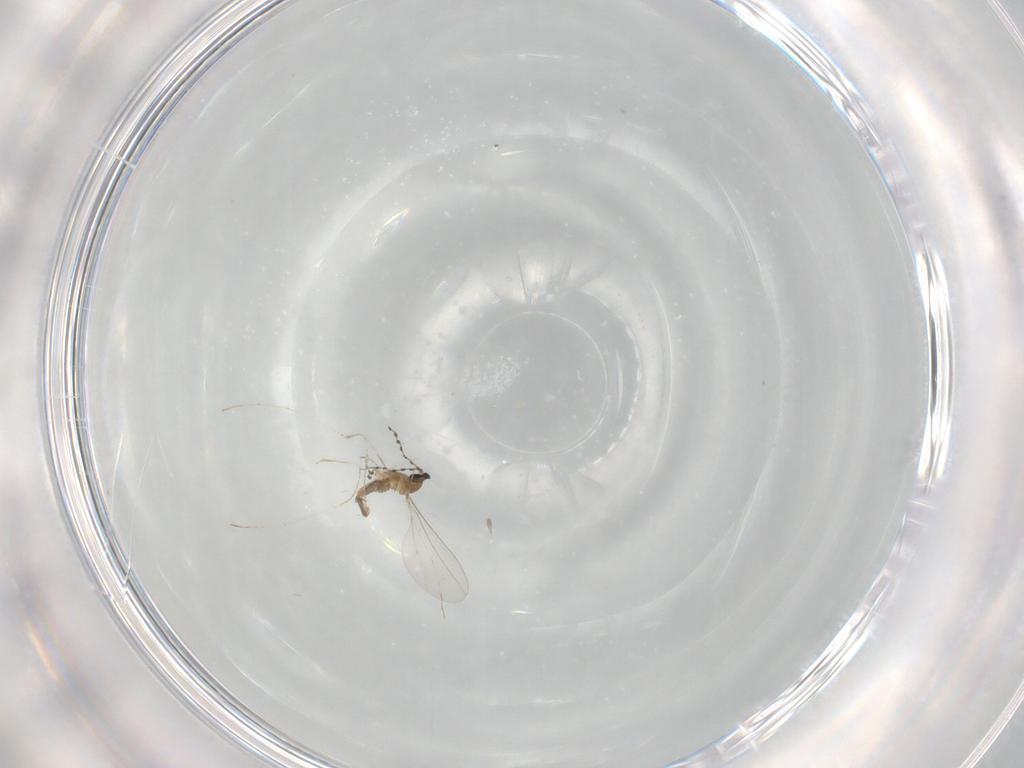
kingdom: Animalia
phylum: Arthropoda
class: Insecta
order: Diptera
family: Cecidomyiidae
